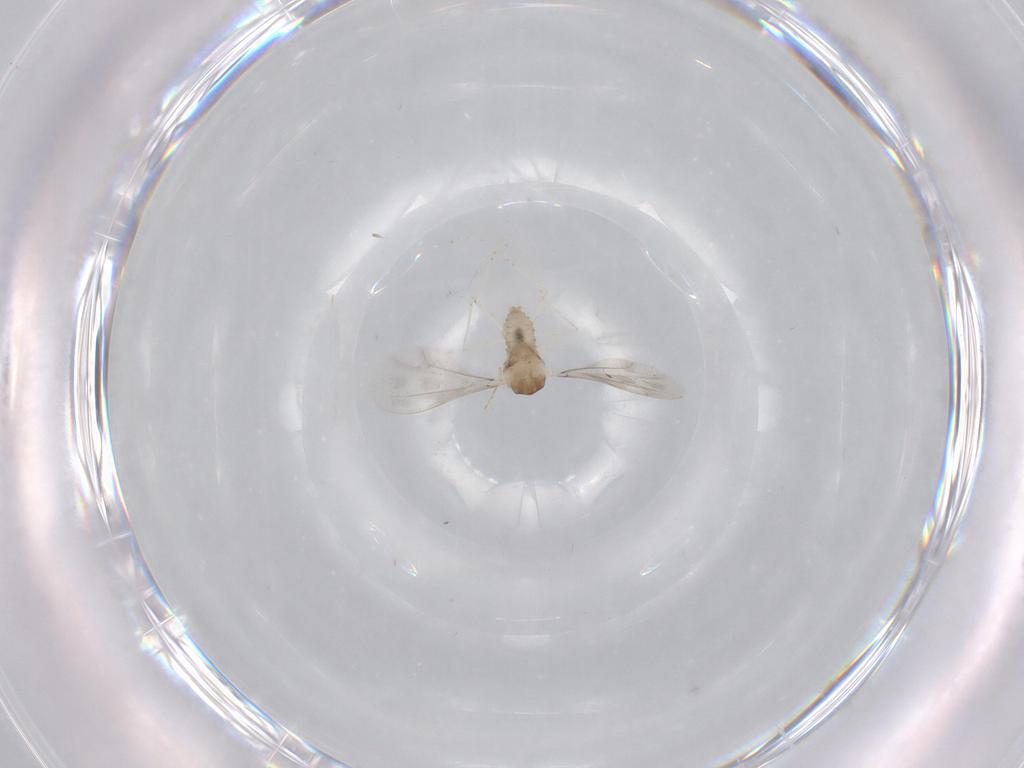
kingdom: Animalia
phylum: Arthropoda
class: Insecta
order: Diptera
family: Cecidomyiidae
